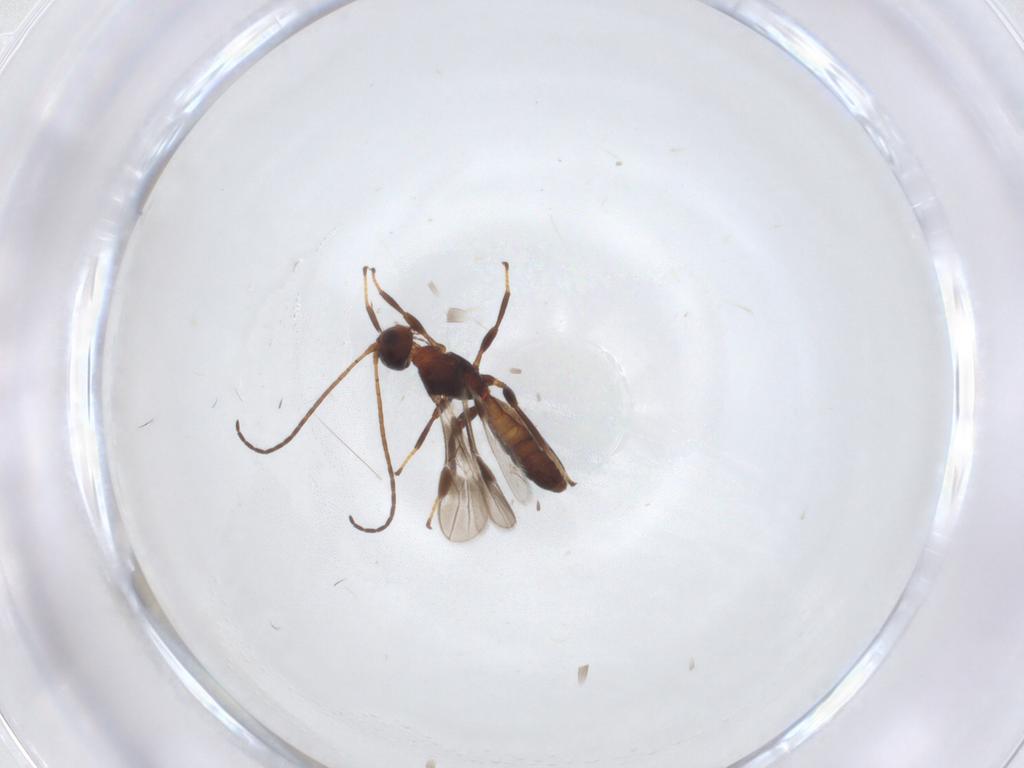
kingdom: Animalia
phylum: Arthropoda
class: Insecta
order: Hymenoptera
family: Braconidae
